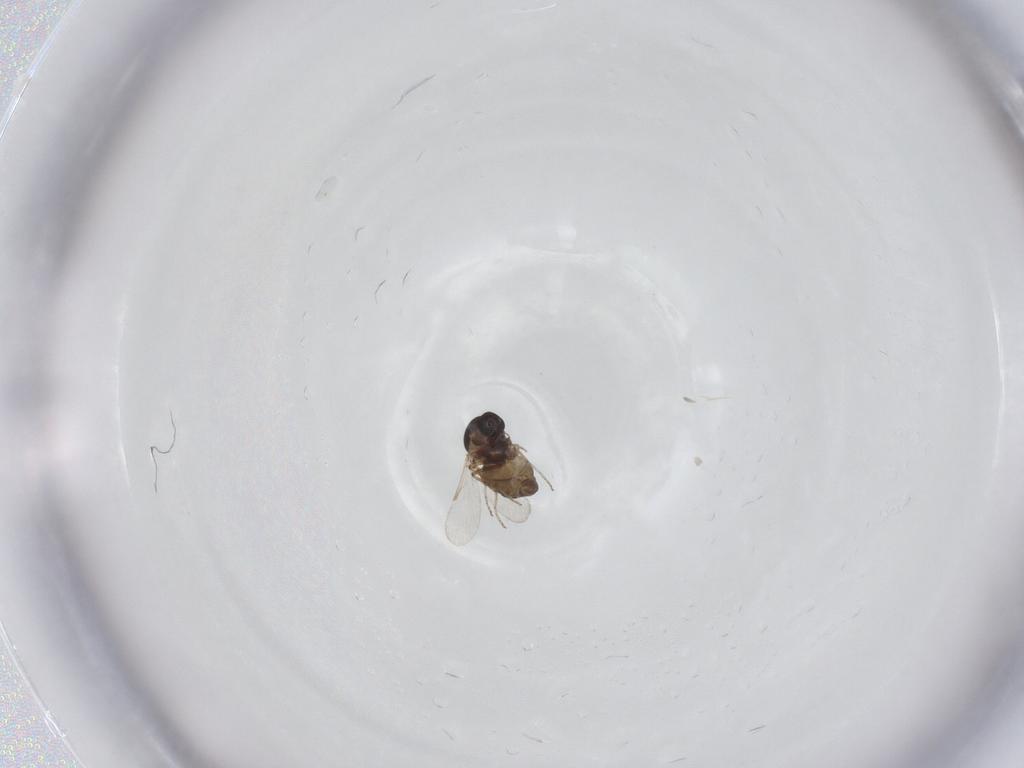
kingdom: Animalia
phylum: Arthropoda
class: Insecta
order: Diptera
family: Ceratopogonidae
